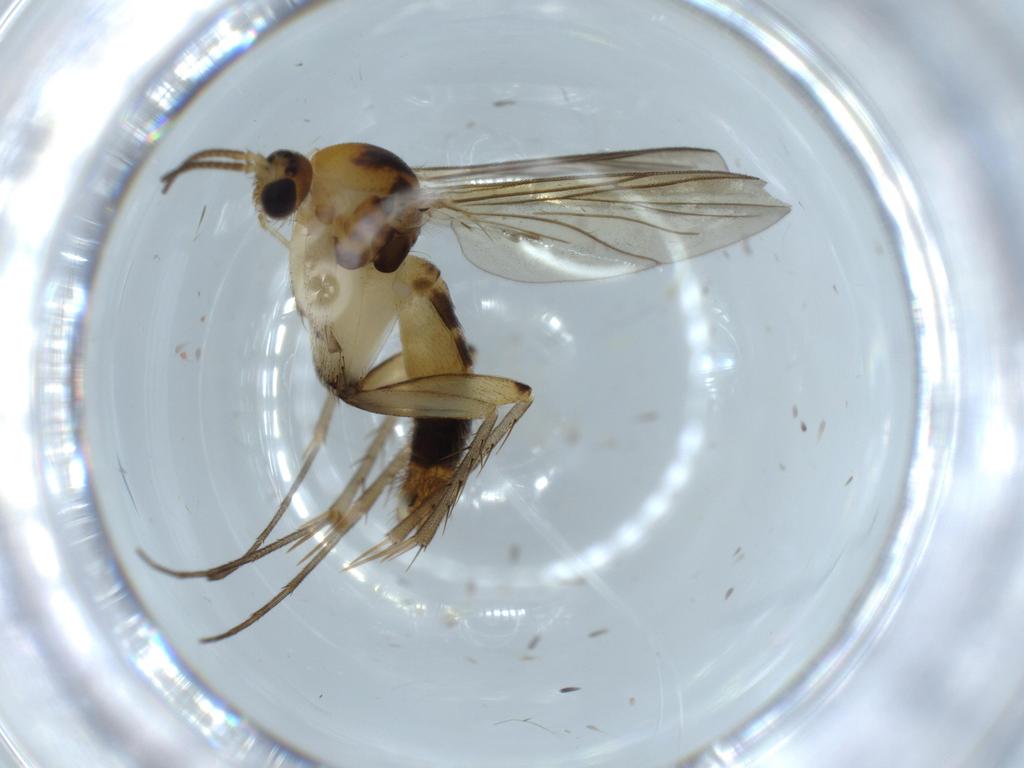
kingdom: Animalia
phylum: Arthropoda
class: Insecta
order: Diptera
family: Mycetophilidae
